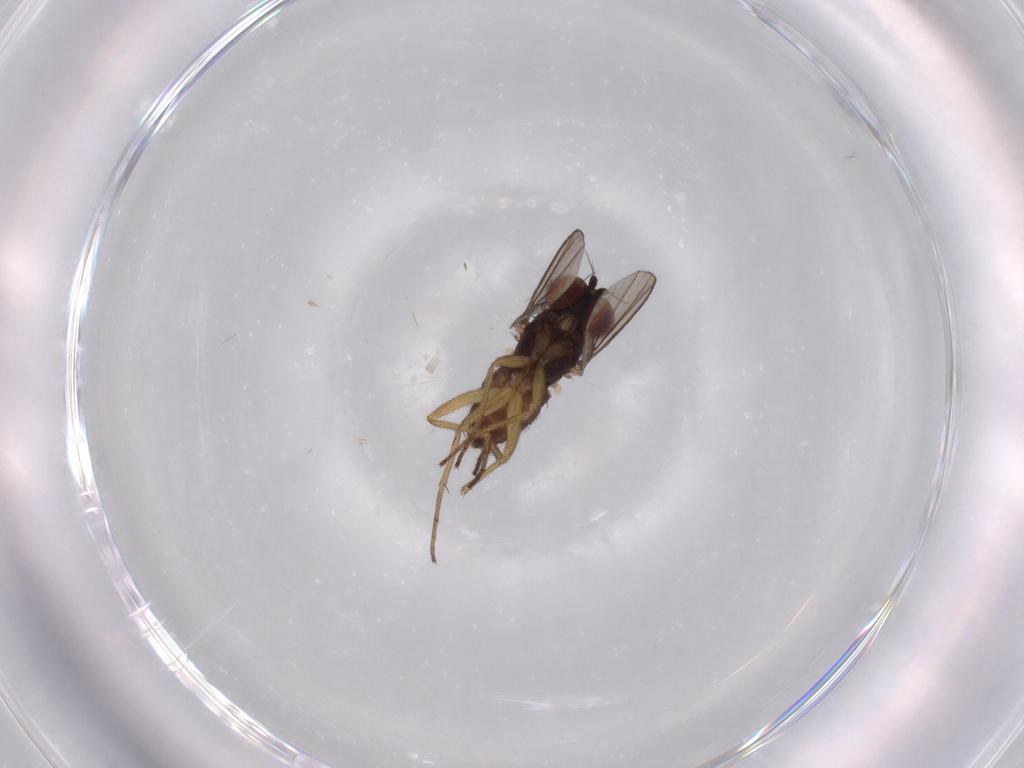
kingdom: Animalia
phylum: Arthropoda
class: Insecta
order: Diptera
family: Dolichopodidae
